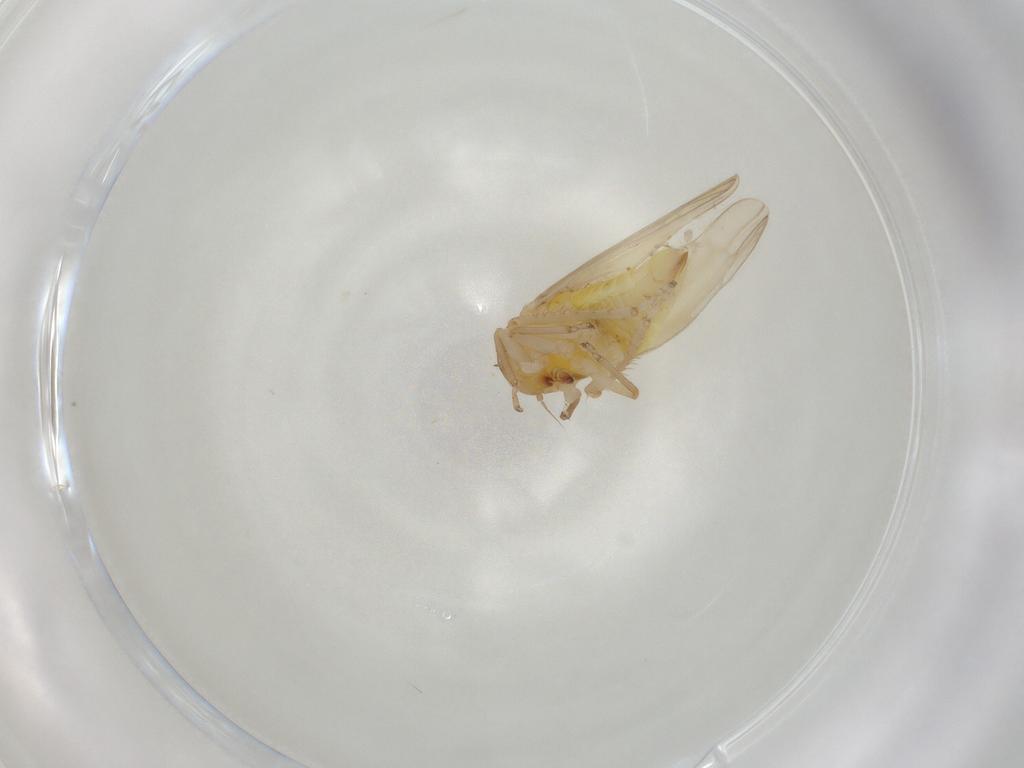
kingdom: Animalia
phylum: Arthropoda
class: Insecta
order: Hemiptera
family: Cicadellidae
